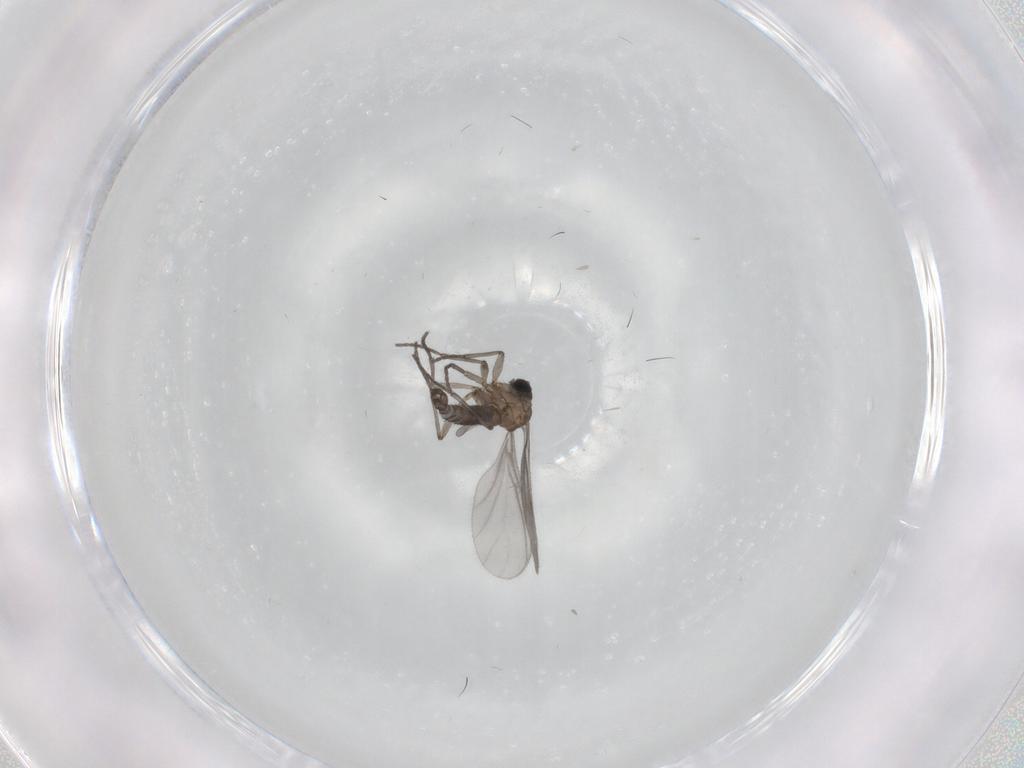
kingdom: Animalia
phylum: Arthropoda
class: Insecta
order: Diptera
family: Sciaridae
